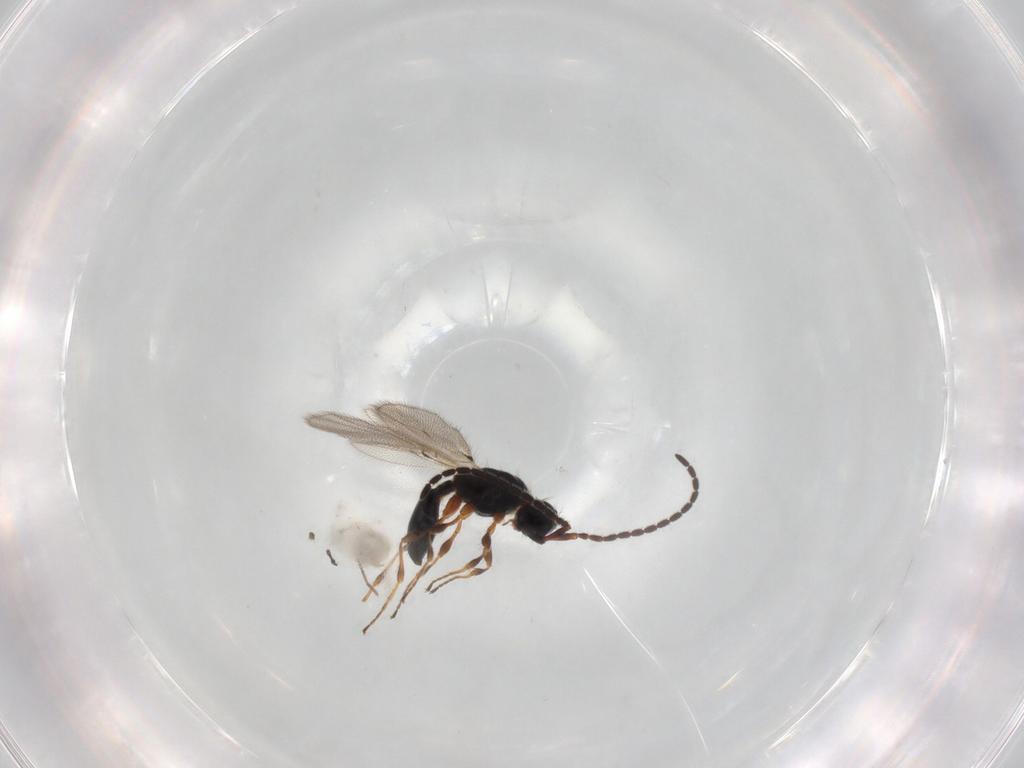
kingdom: Animalia
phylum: Arthropoda
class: Insecta
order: Hymenoptera
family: Diapriidae
